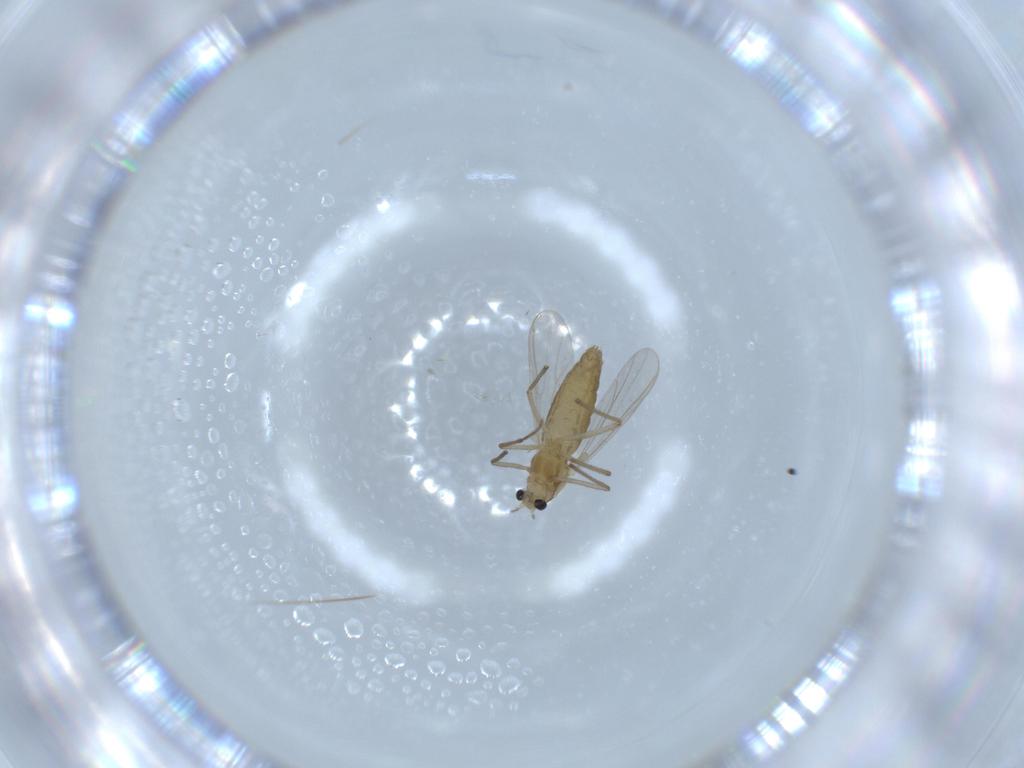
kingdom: Animalia
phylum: Arthropoda
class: Insecta
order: Diptera
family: Chironomidae
